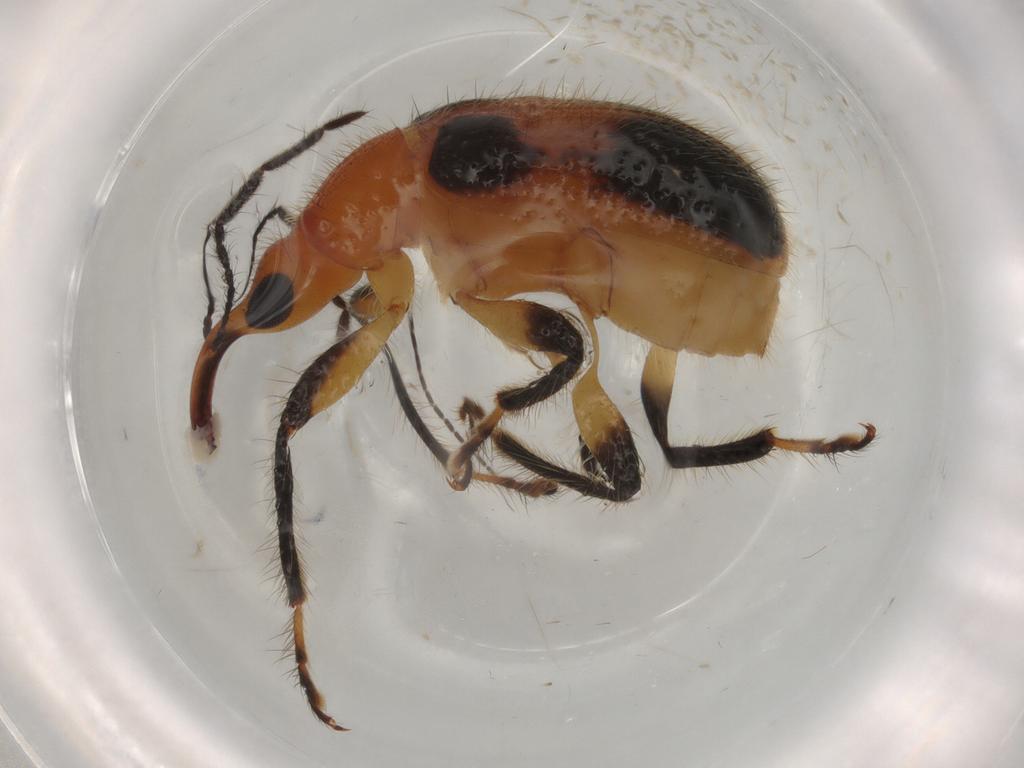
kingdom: Animalia
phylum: Arthropoda
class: Insecta
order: Coleoptera
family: Attelabidae
